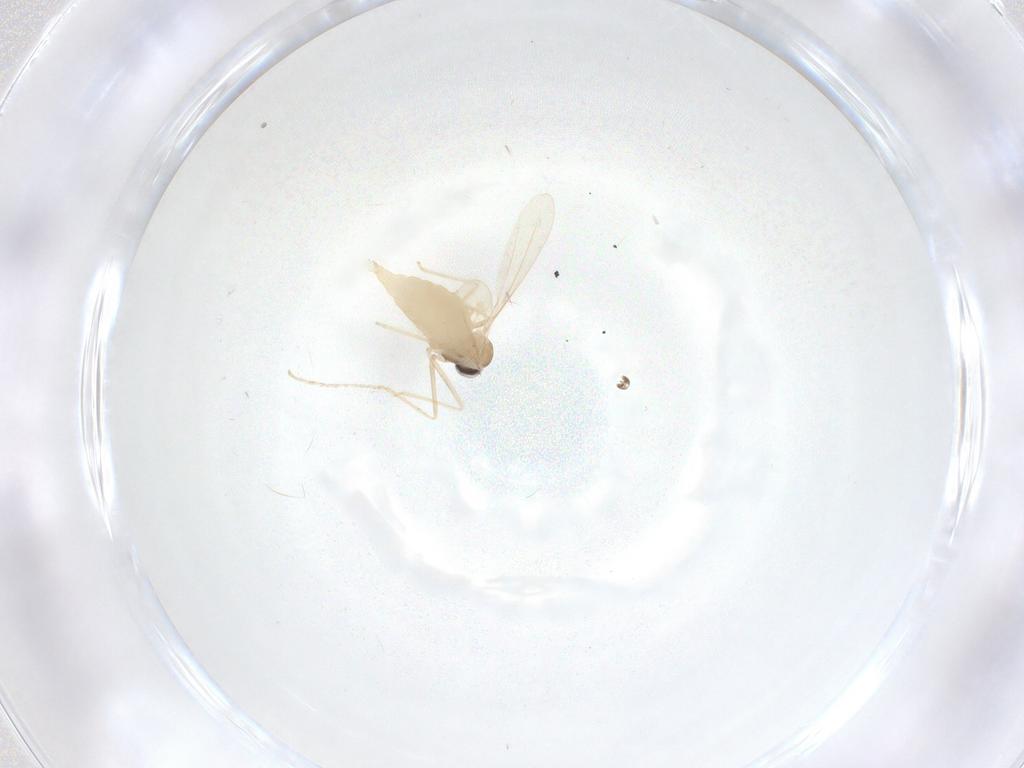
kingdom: Animalia
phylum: Arthropoda
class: Insecta
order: Diptera
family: Cecidomyiidae
